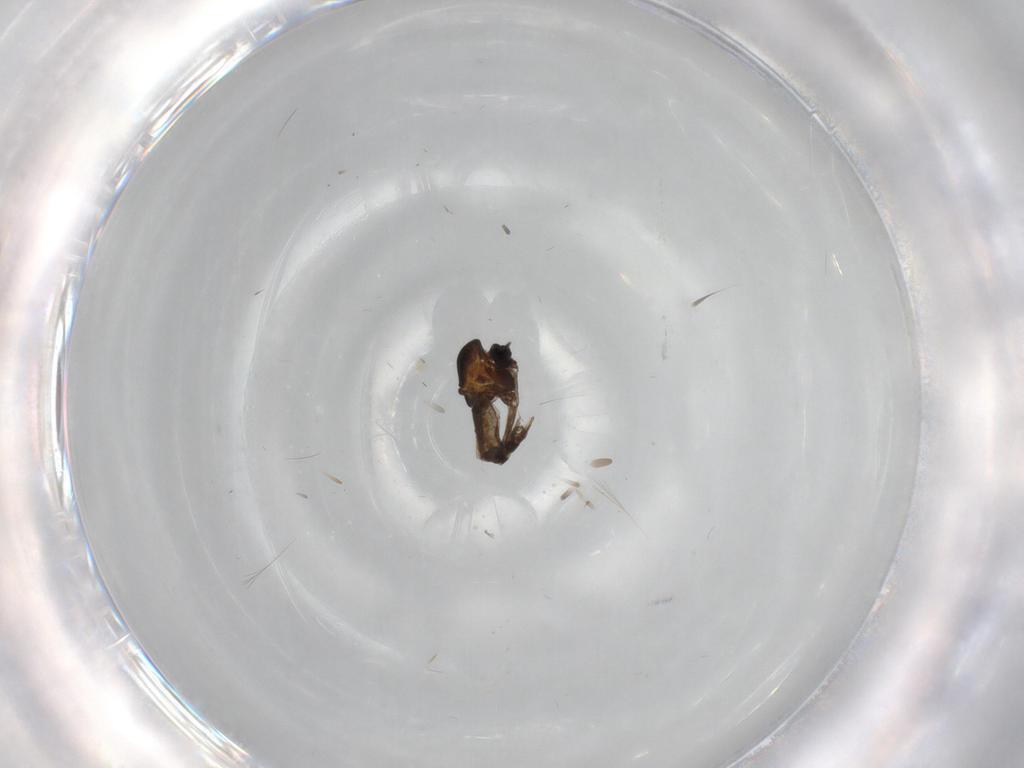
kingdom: Animalia
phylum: Arthropoda
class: Insecta
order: Diptera
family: Chironomidae
